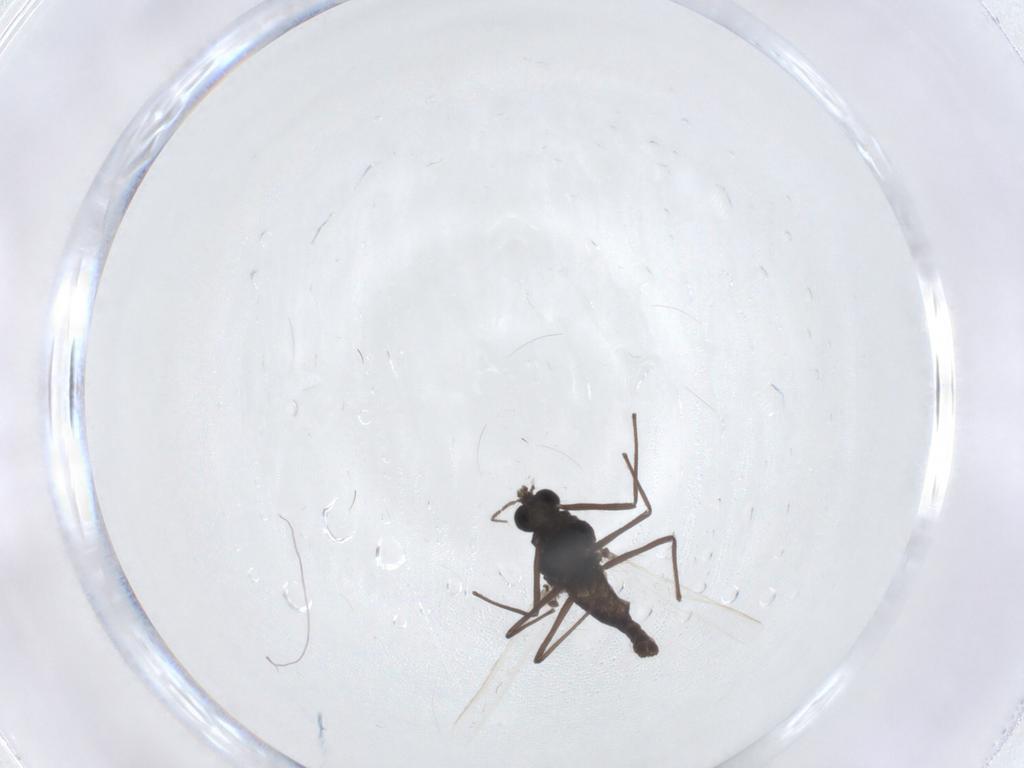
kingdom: Animalia
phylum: Arthropoda
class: Insecta
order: Diptera
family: Chironomidae
